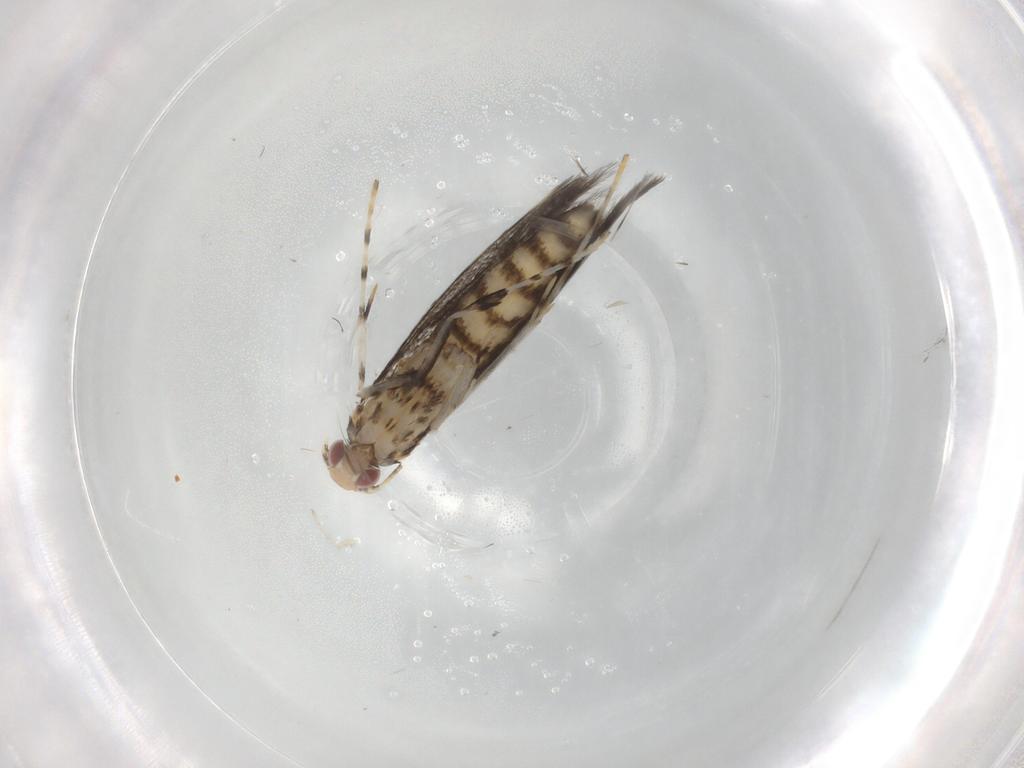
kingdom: Animalia
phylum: Arthropoda
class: Insecta
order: Lepidoptera
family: Gracillariidae
